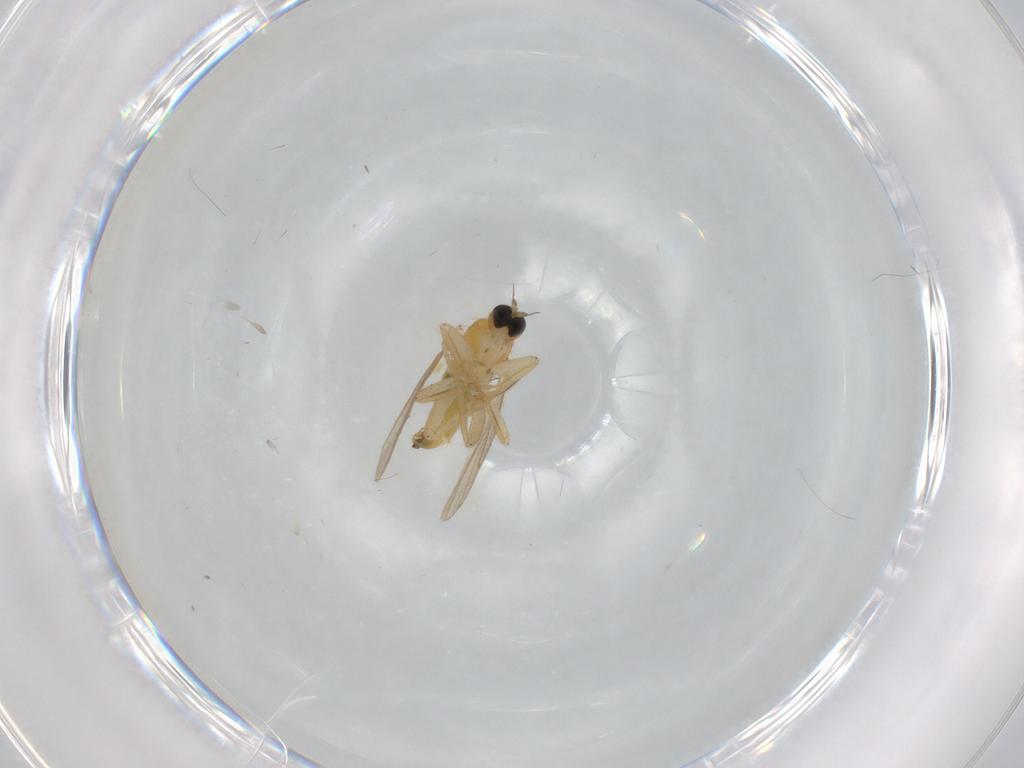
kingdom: Animalia
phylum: Arthropoda
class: Insecta
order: Diptera
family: Hybotidae
